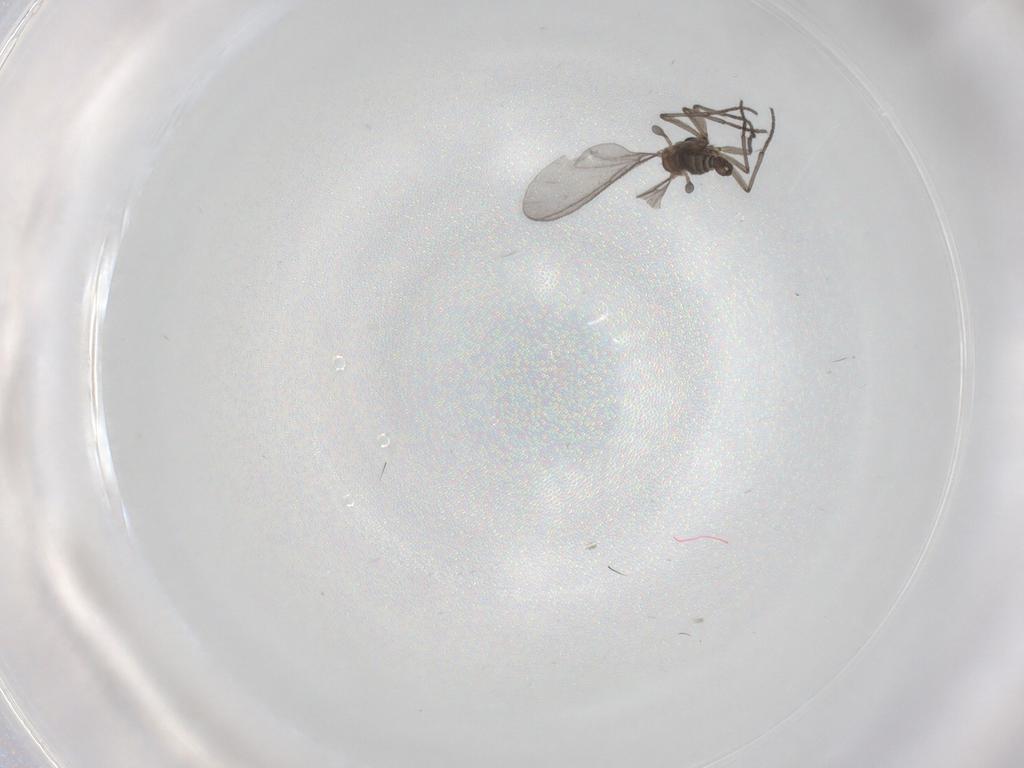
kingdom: Animalia
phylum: Arthropoda
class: Insecta
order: Diptera
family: Sciaridae
